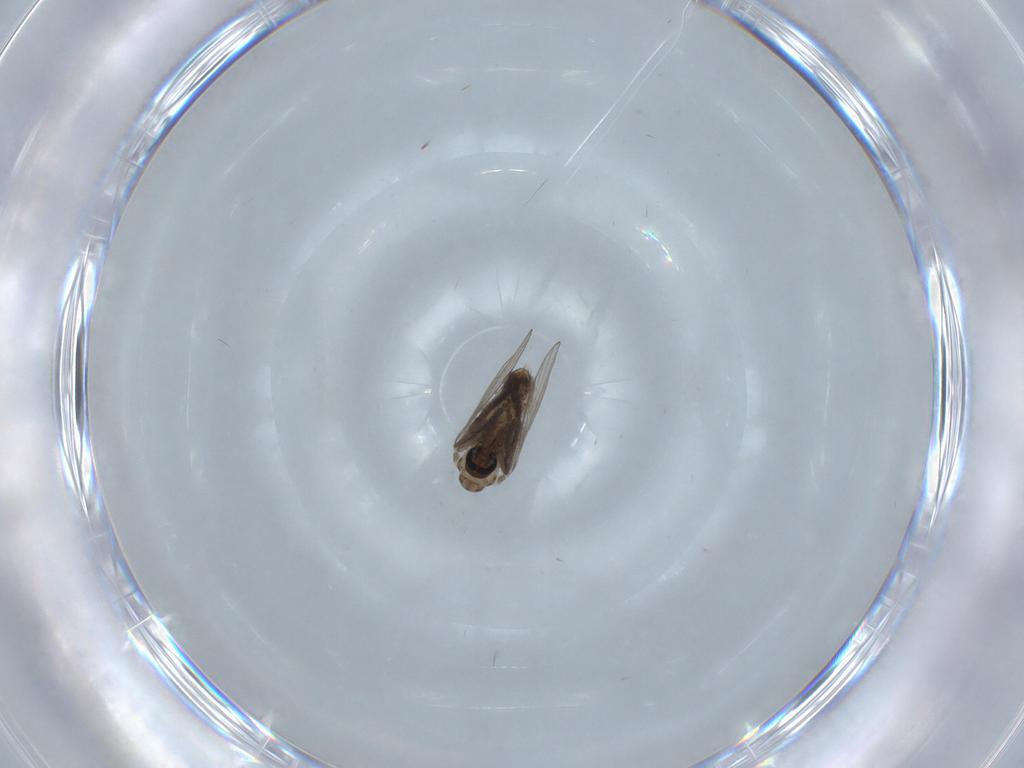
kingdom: Animalia
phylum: Arthropoda
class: Insecta
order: Diptera
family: Psychodidae
